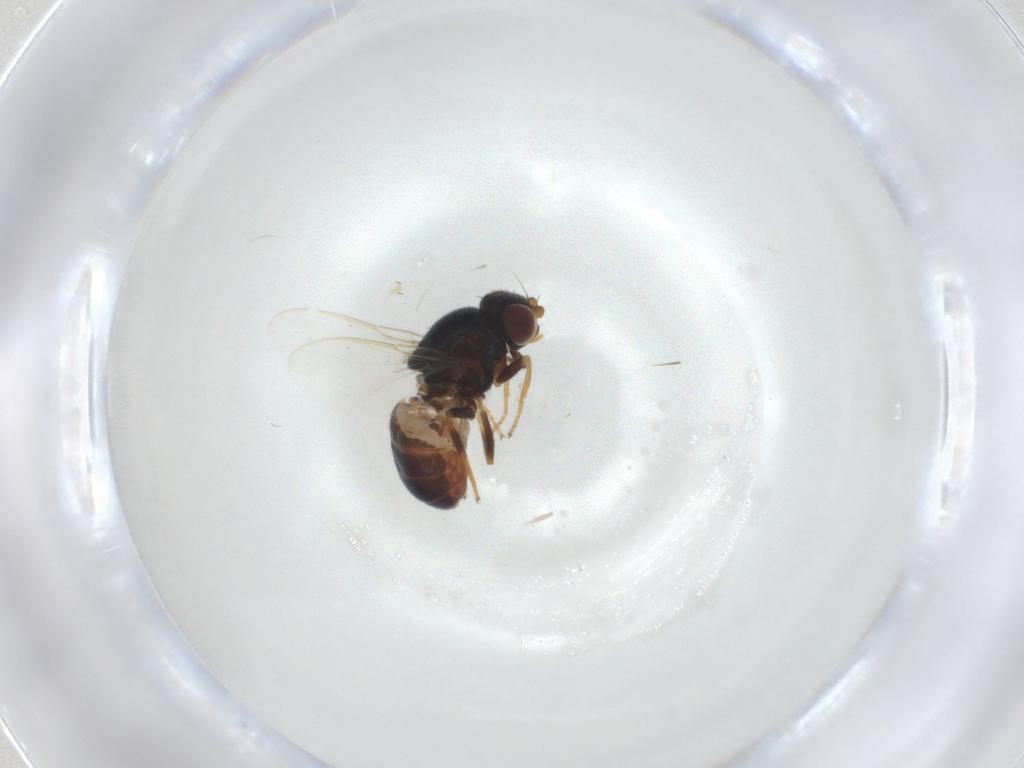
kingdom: Animalia
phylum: Arthropoda
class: Insecta
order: Diptera
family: Chloropidae
